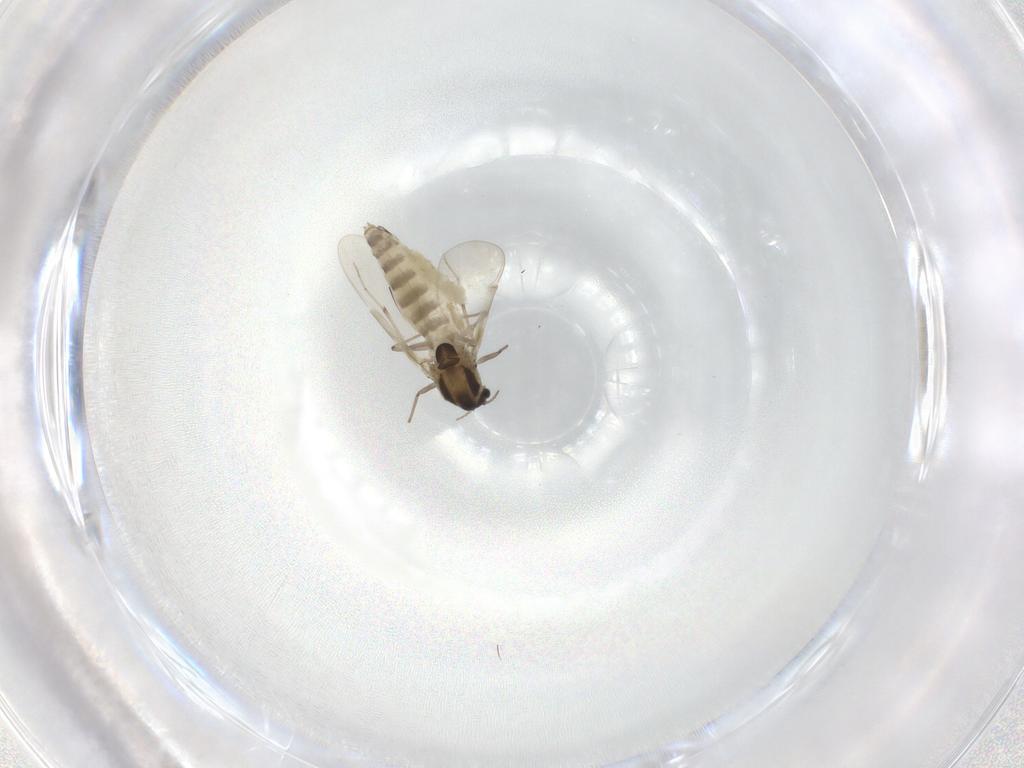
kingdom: Animalia
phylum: Arthropoda
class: Insecta
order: Diptera
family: Chironomidae
